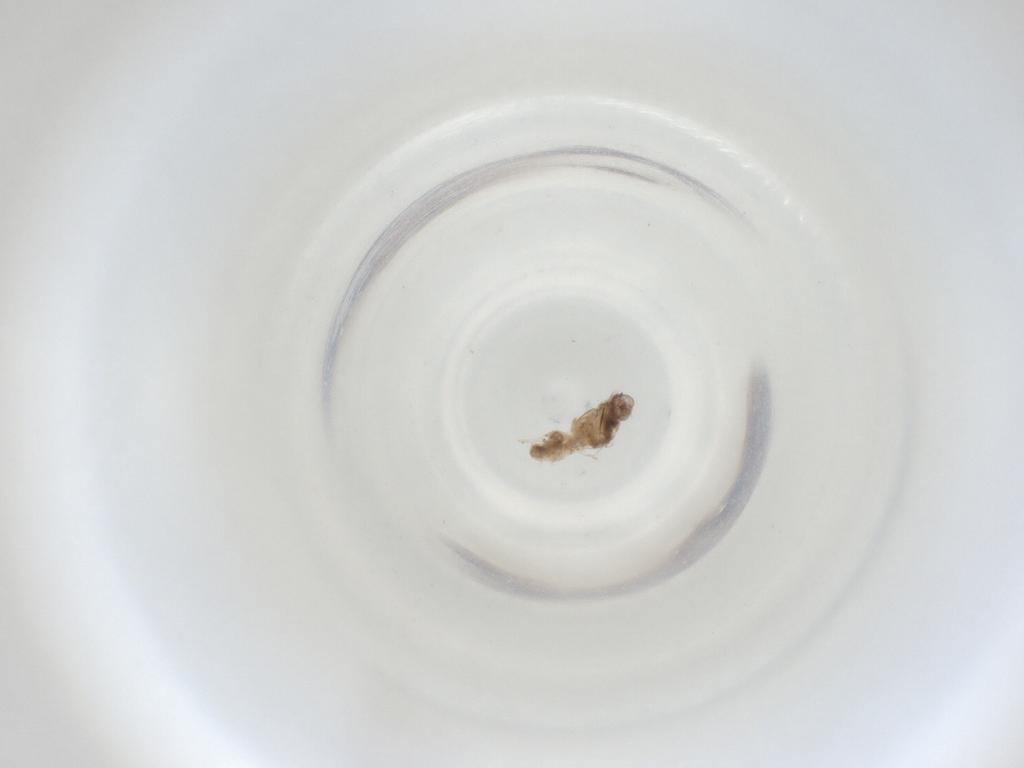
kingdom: Animalia
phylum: Arthropoda
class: Insecta
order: Diptera
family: Cecidomyiidae
